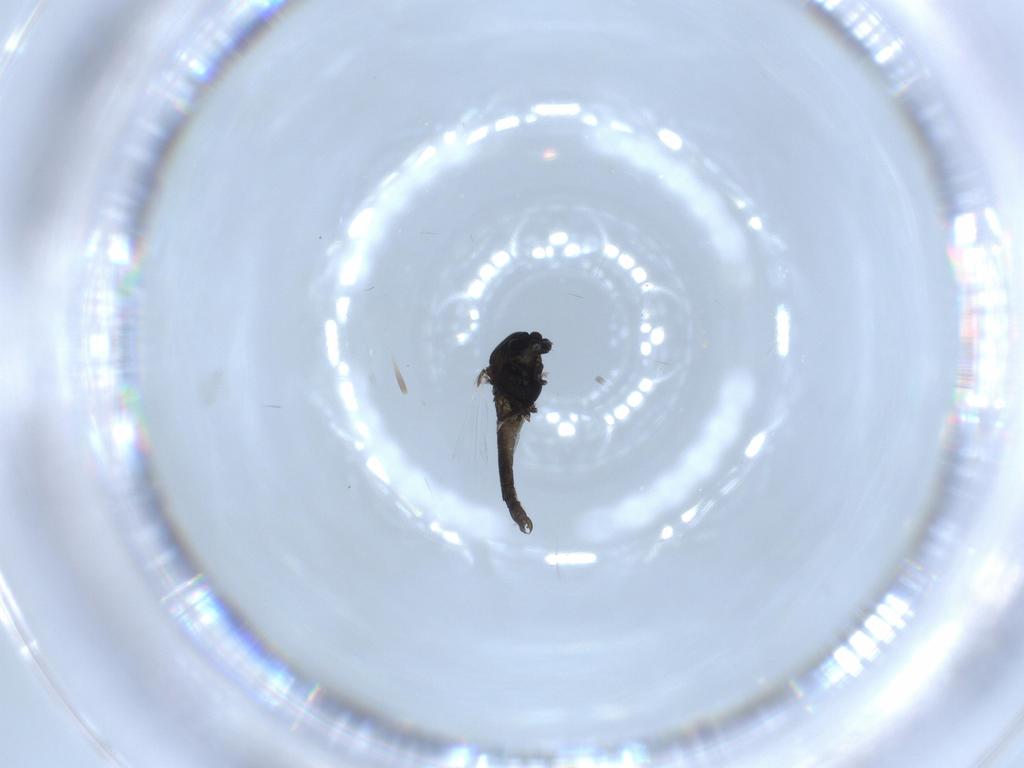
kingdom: Animalia
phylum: Arthropoda
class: Insecta
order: Diptera
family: Chironomidae
